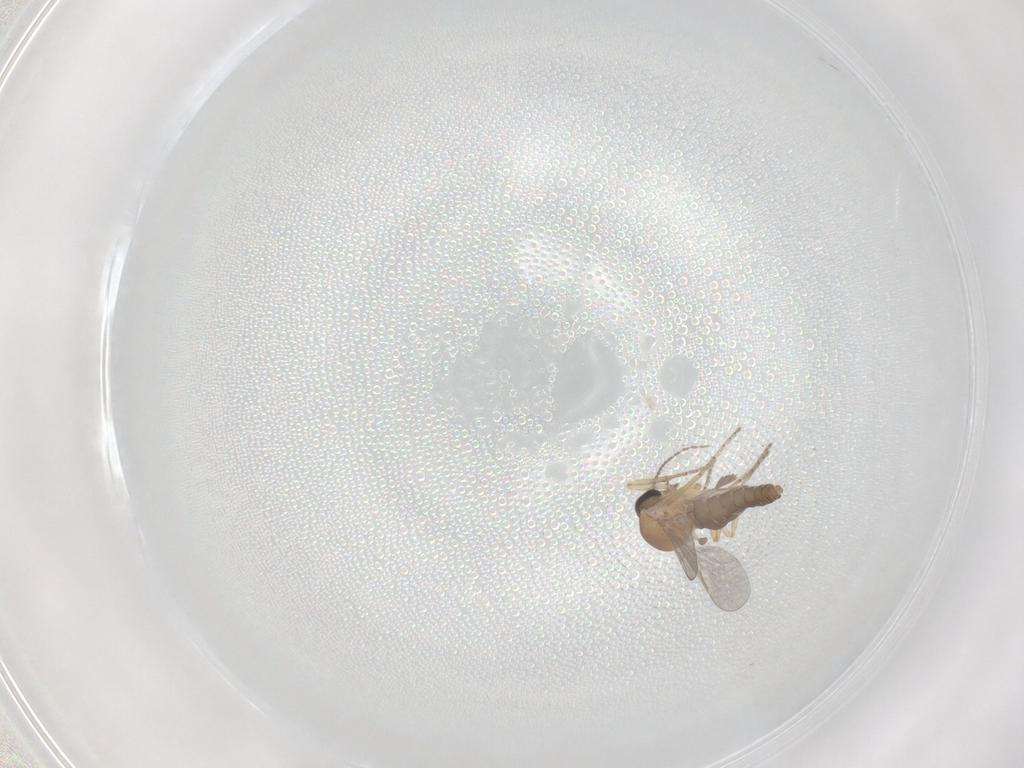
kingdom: Animalia
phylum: Arthropoda
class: Insecta
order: Diptera
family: Ceratopogonidae
